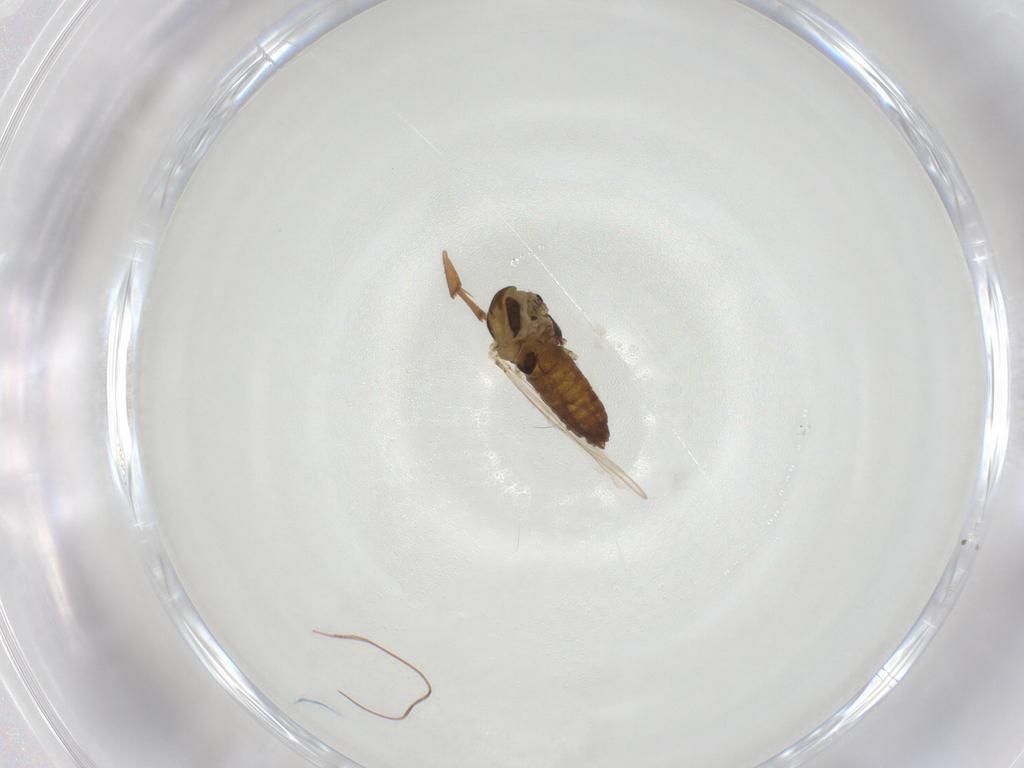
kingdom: Animalia
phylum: Arthropoda
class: Insecta
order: Diptera
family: Chironomidae
